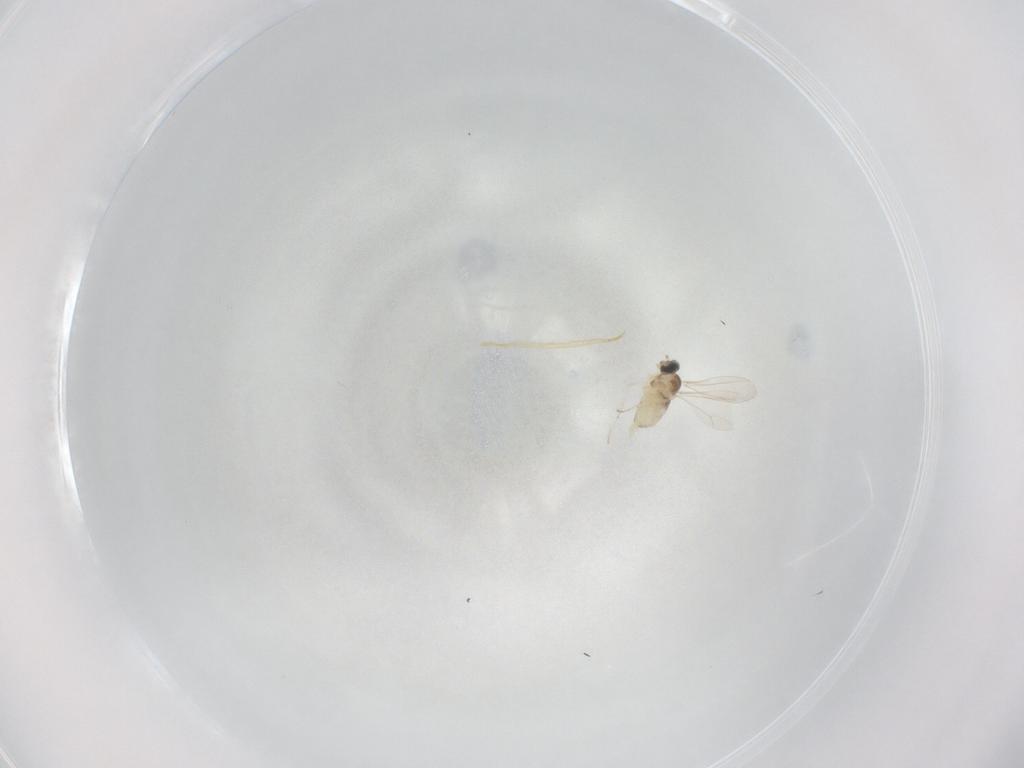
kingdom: Animalia
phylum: Arthropoda
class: Insecta
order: Diptera
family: Cecidomyiidae
